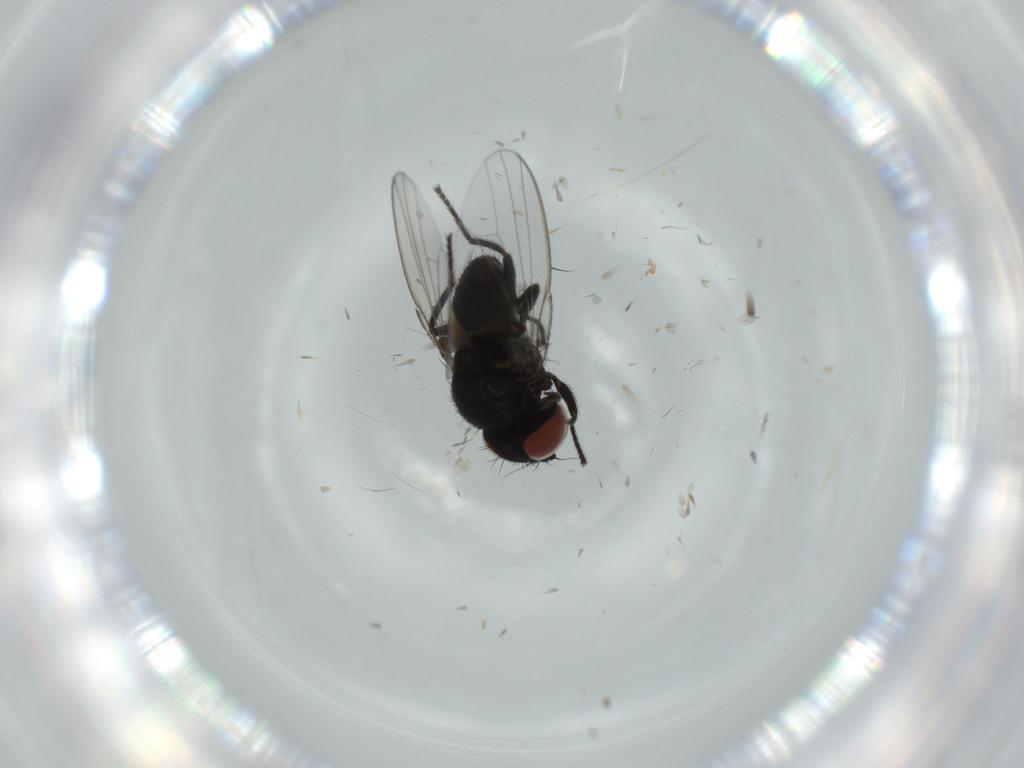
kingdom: Animalia
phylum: Arthropoda
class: Insecta
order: Diptera
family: Milichiidae
